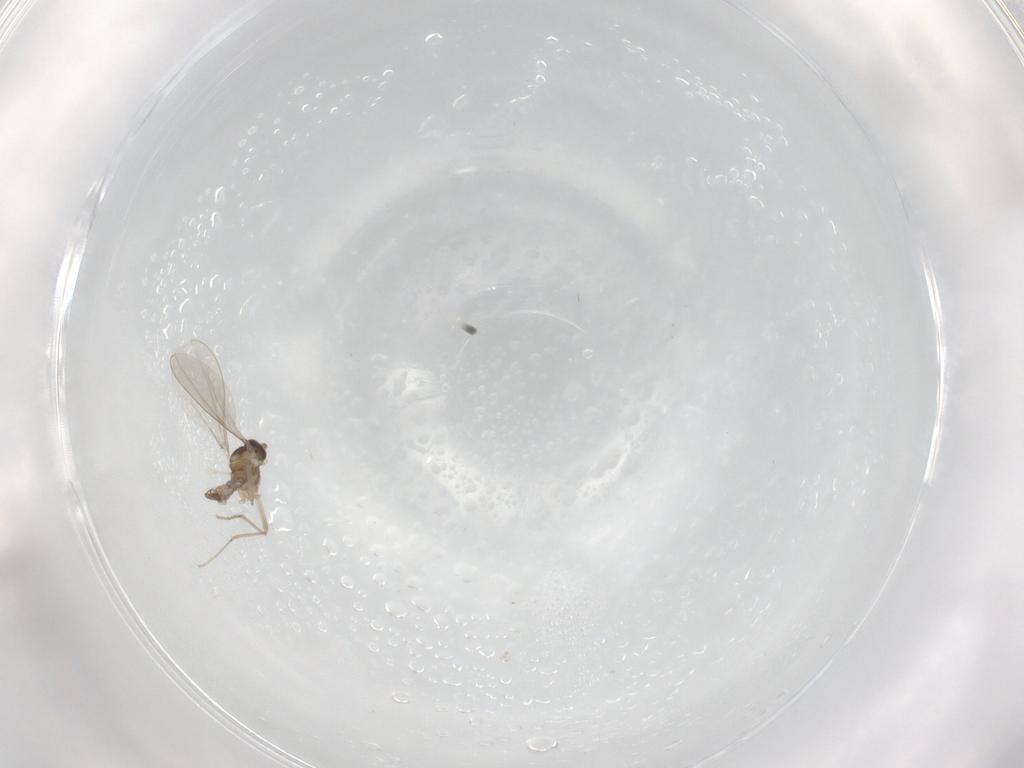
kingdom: Animalia
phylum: Arthropoda
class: Insecta
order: Diptera
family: Cecidomyiidae
